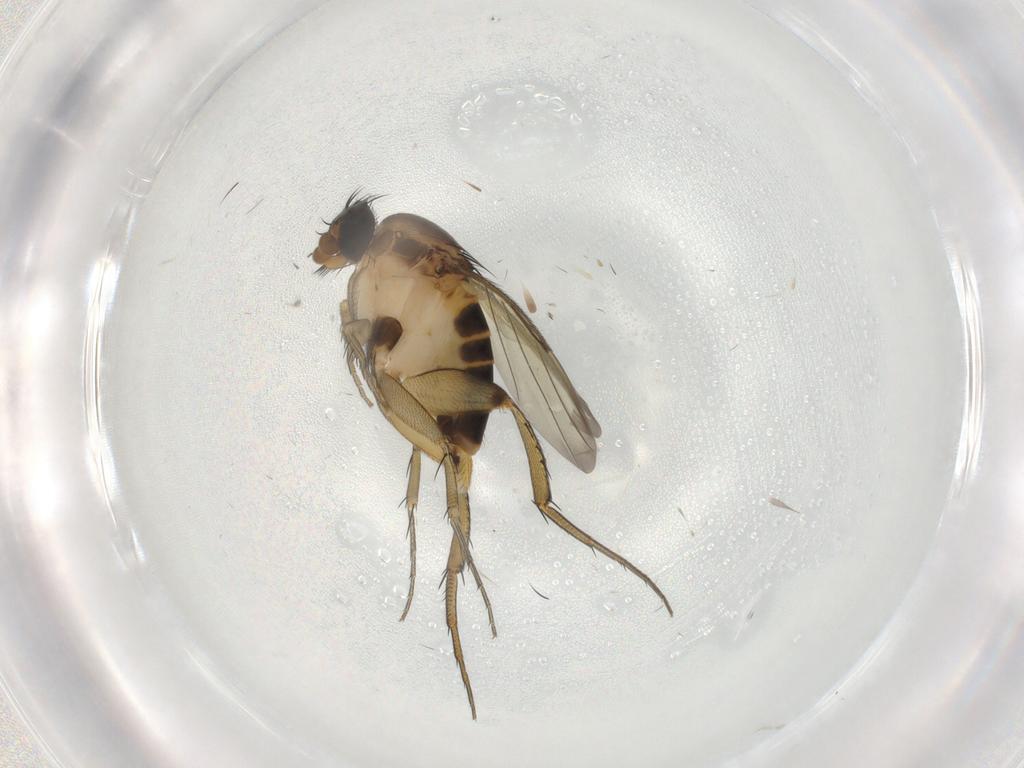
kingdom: Animalia
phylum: Arthropoda
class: Insecta
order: Diptera
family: Phoridae
